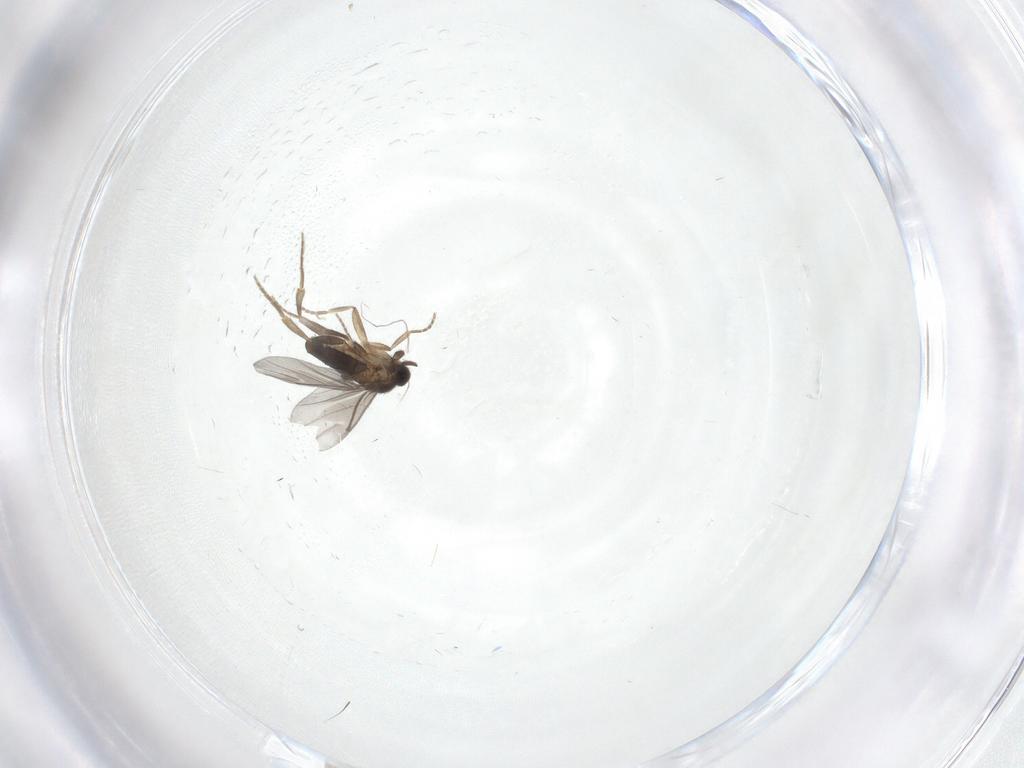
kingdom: Animalia
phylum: Arthropoda
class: Insecta
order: Diptera
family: Phoridae
